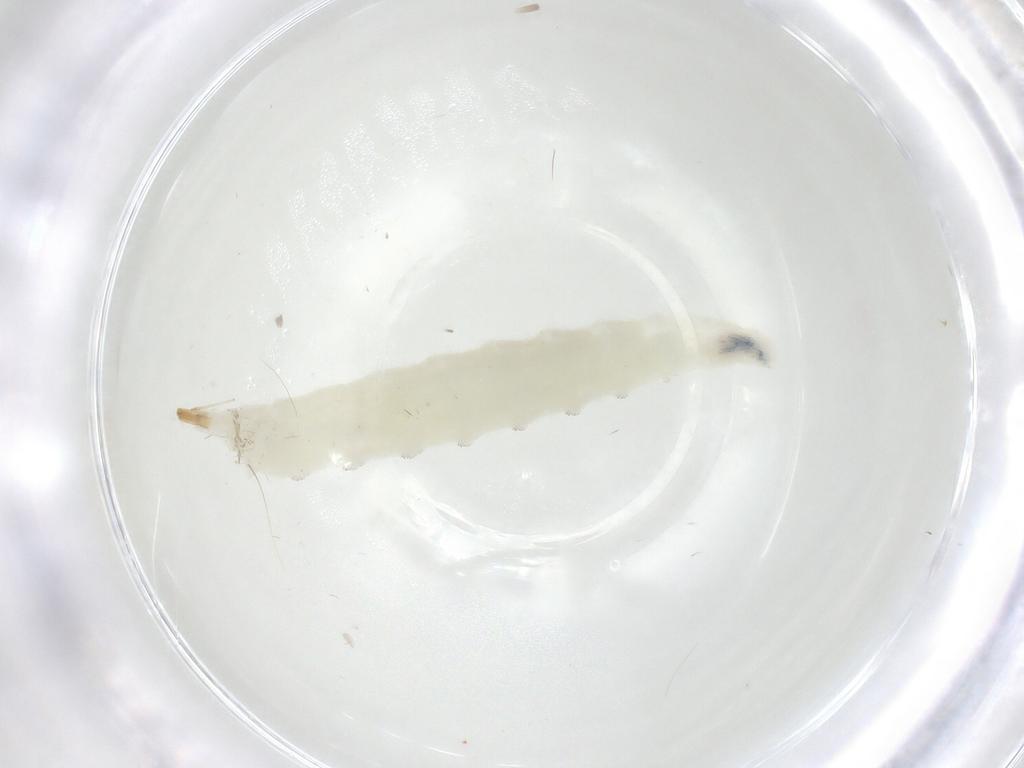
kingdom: Animalia
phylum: Arthropoda
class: Insecta
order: Diptera
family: Drosophilidae
